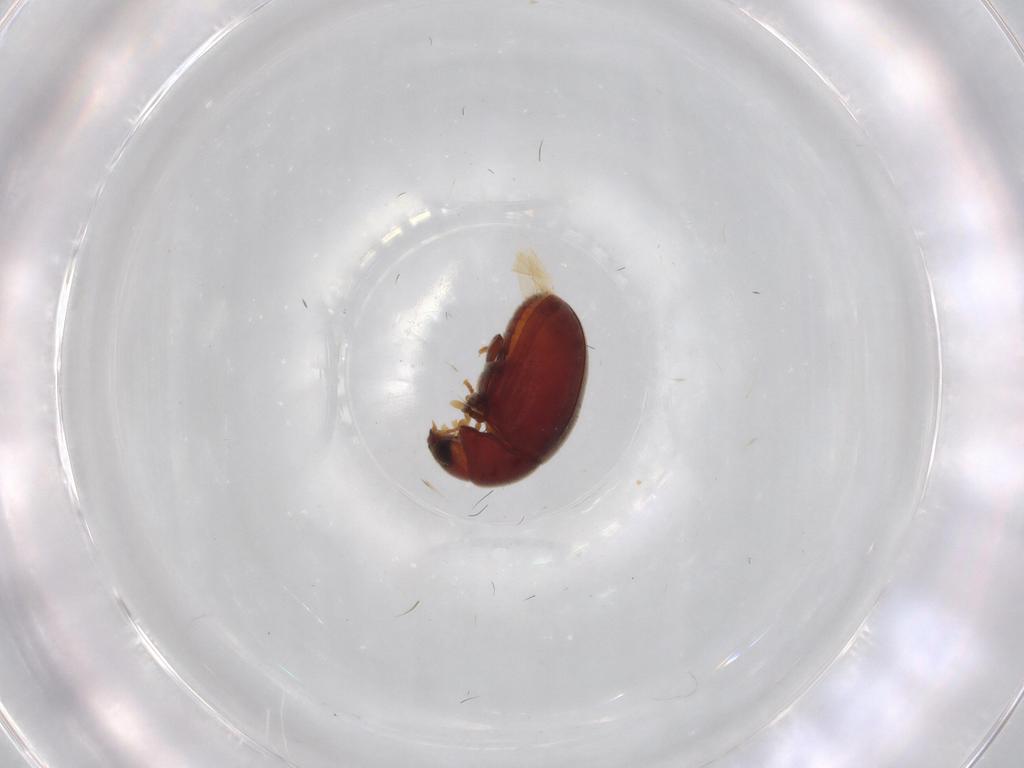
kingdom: Animalia
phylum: Arthropoda
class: Insecta
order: Coleoptera
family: Ptinidae
